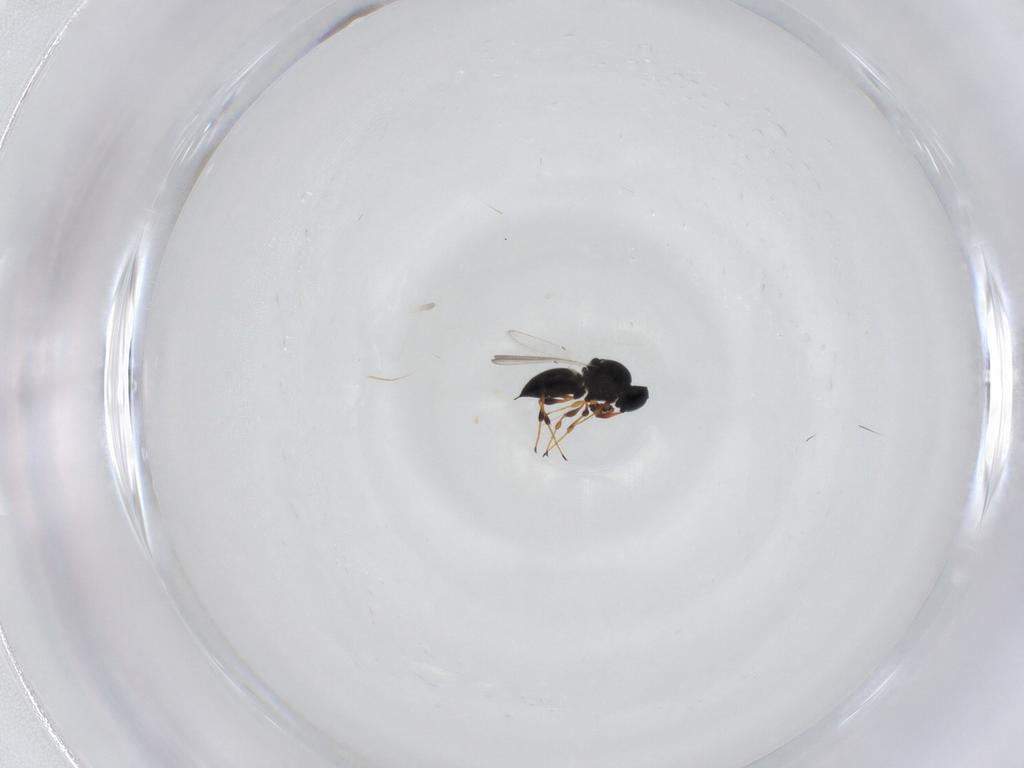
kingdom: Animalia
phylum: Arthropoda
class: Insecta
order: Hymenoptera
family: Platygastridae
